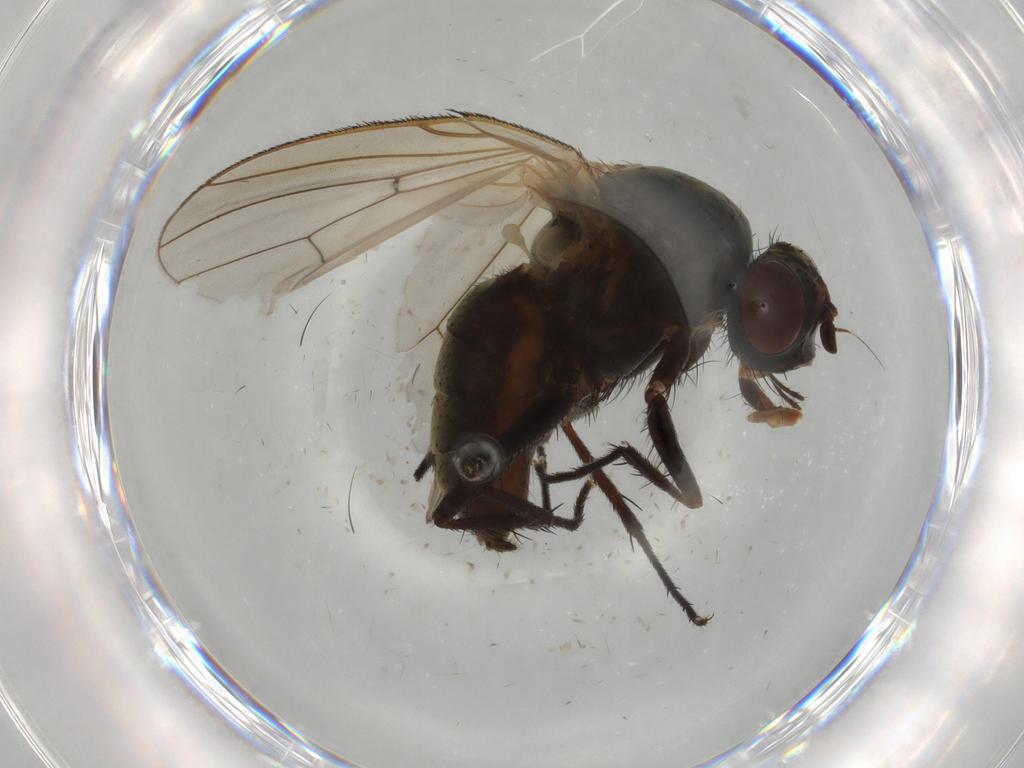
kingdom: Animalia
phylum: Arthropoda
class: Insecta
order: Diptera
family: Anthomyiidae
